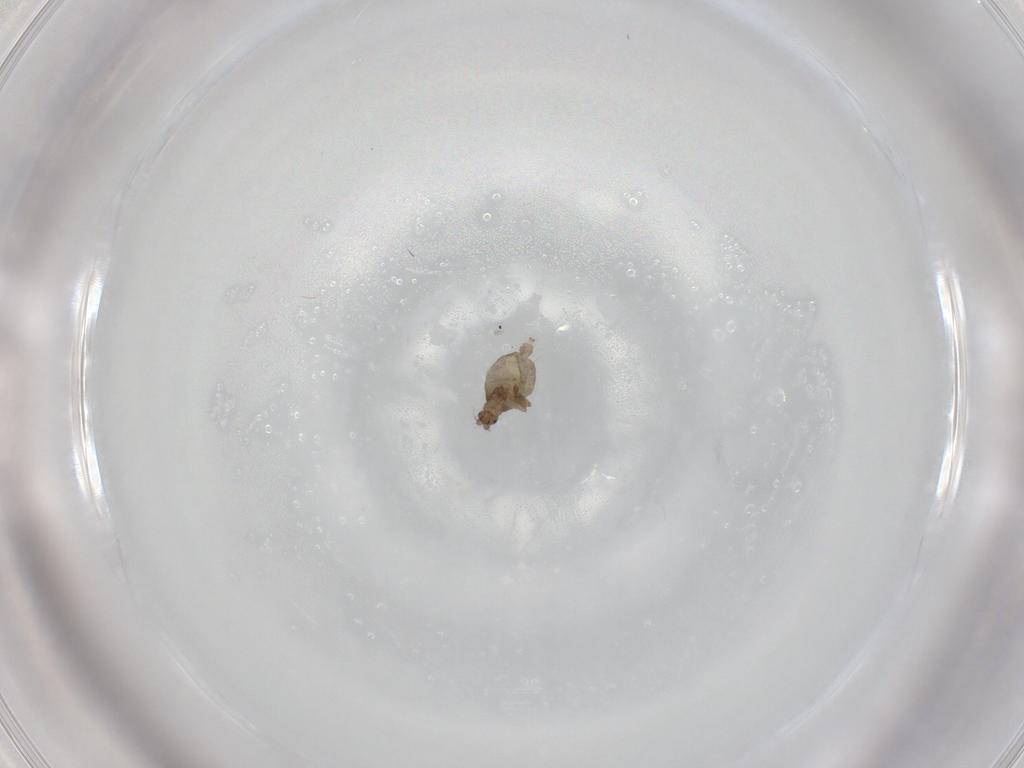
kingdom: Animalia
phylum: Arthropoda
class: Insecta
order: Diptera
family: Phoridae
